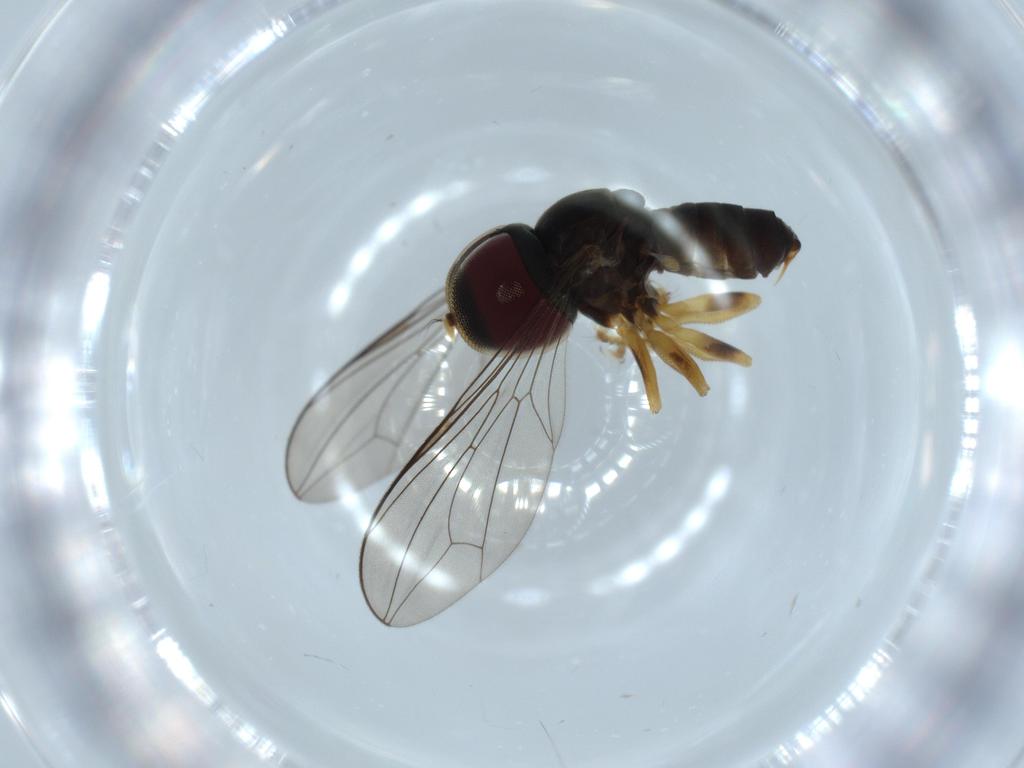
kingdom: Animalia
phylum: Arthropoda
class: Insecta
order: Diptera
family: Pipunculidae
